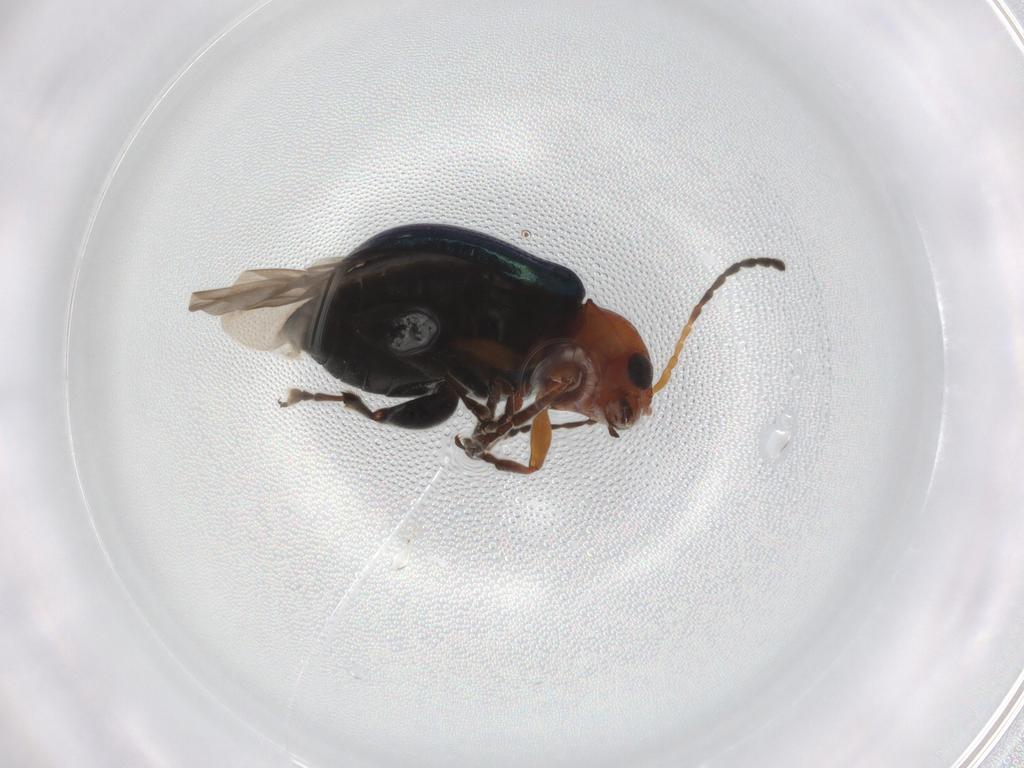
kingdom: Animalia
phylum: Arthropoda
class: Insecta
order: Coleoptera
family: Chrysomelidae
